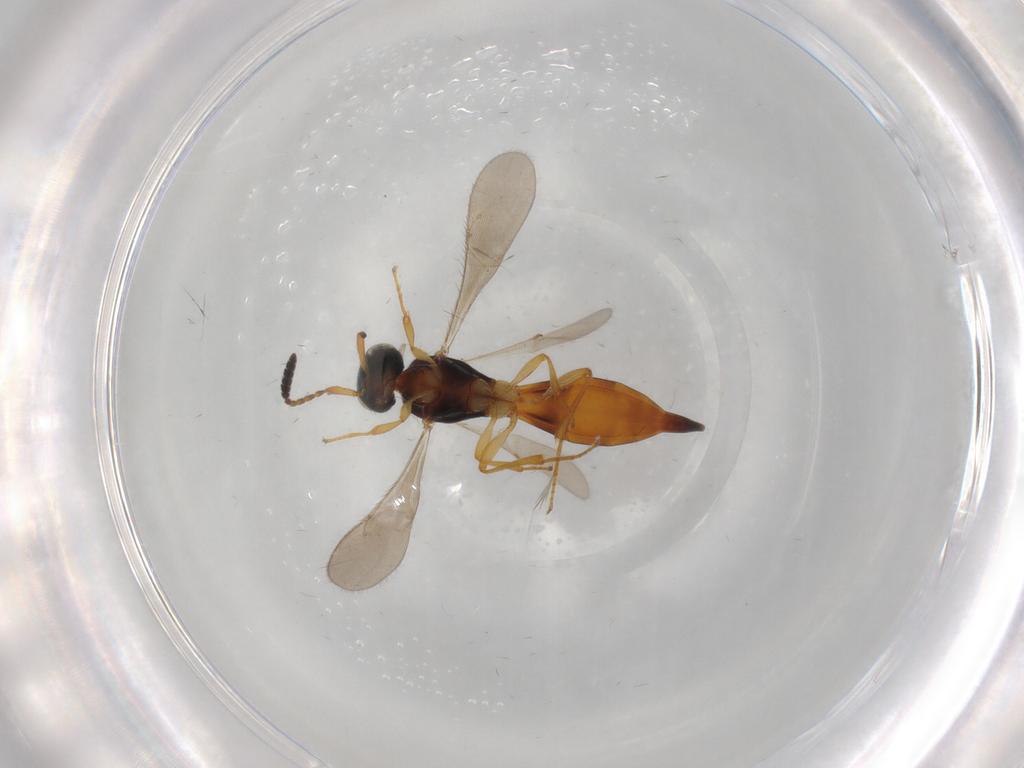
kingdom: Animalia
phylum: Arthropoda
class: Insecta
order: Hymenoptera
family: Scelionidae
